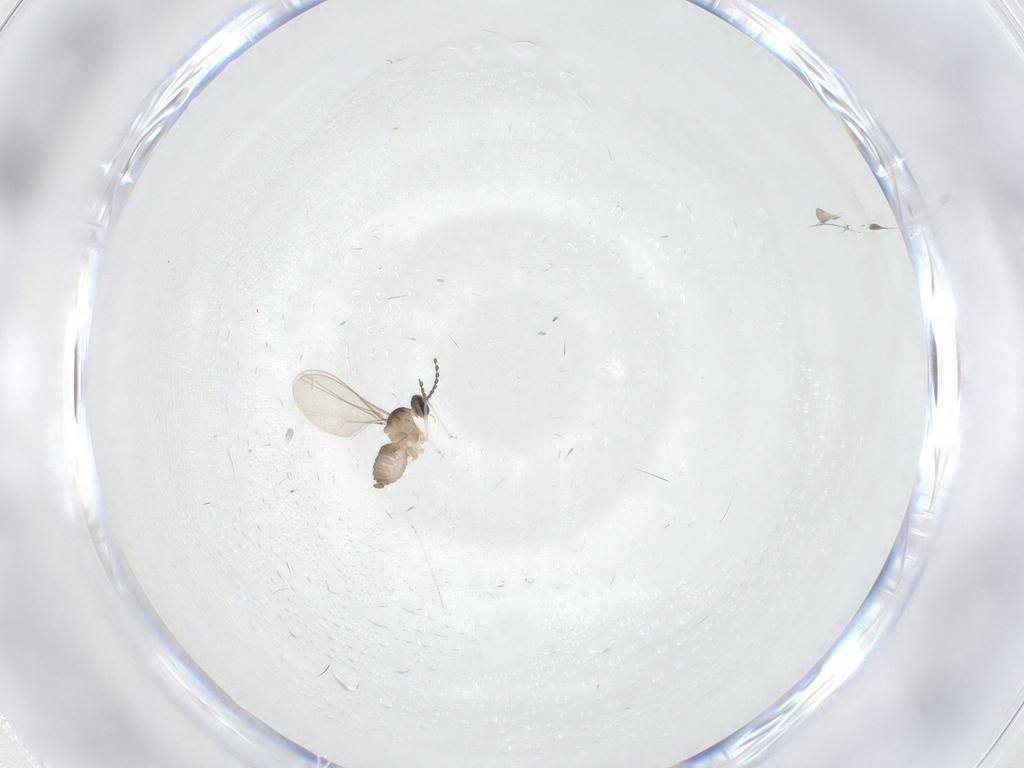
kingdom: Animalia
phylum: Arthropoda
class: Insecta
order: Diptera
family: Cecidomyiidae
